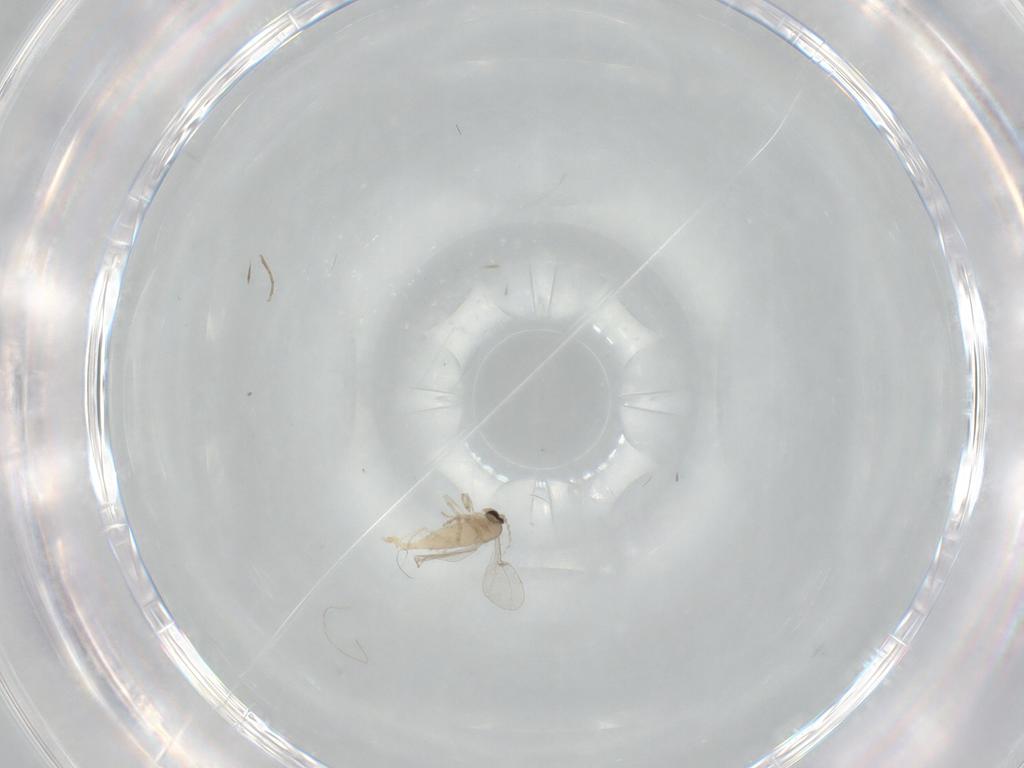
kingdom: Animalia
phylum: Arthropoda
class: Insecta
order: Diptera
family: Cecidomyiidae
